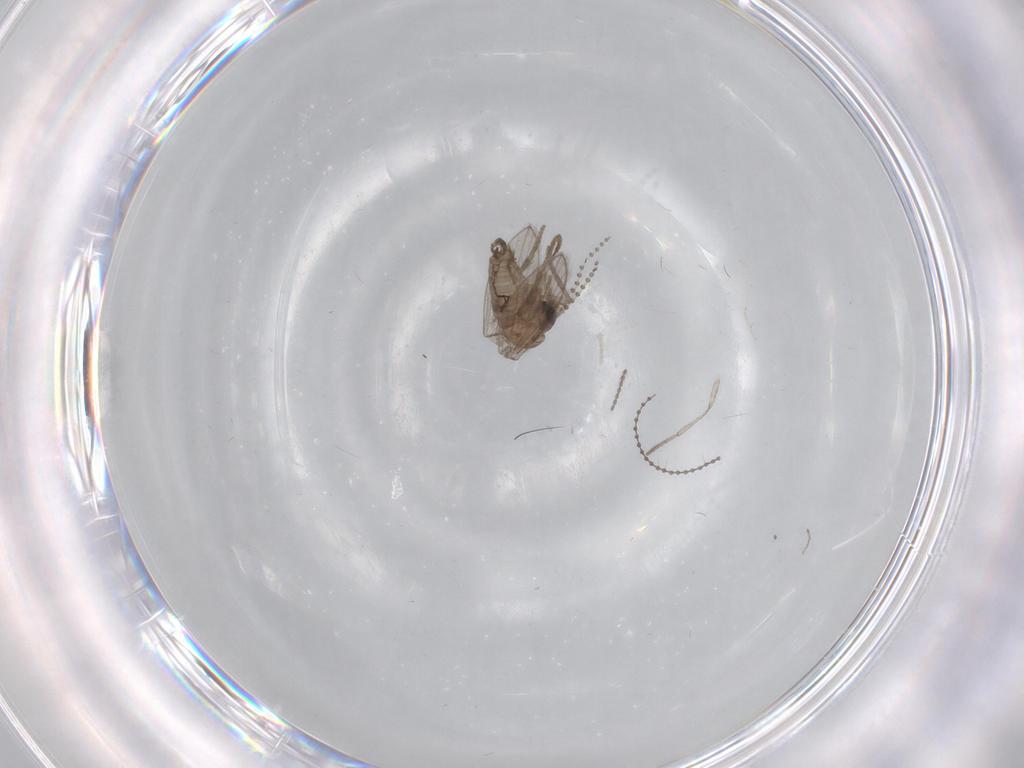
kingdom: Animalia
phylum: Arthropoda
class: Insecta
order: Diptera
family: Psychodidae
